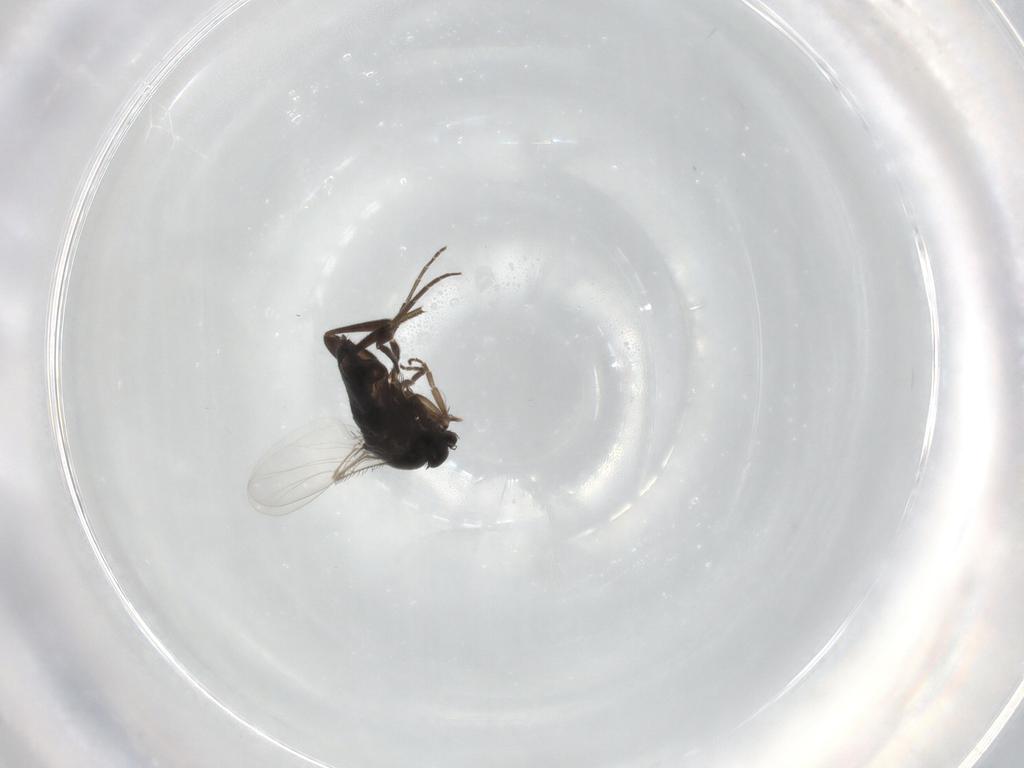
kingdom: Animalia
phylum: Arthropoda
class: Insecta
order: Diptera
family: Phoridae
